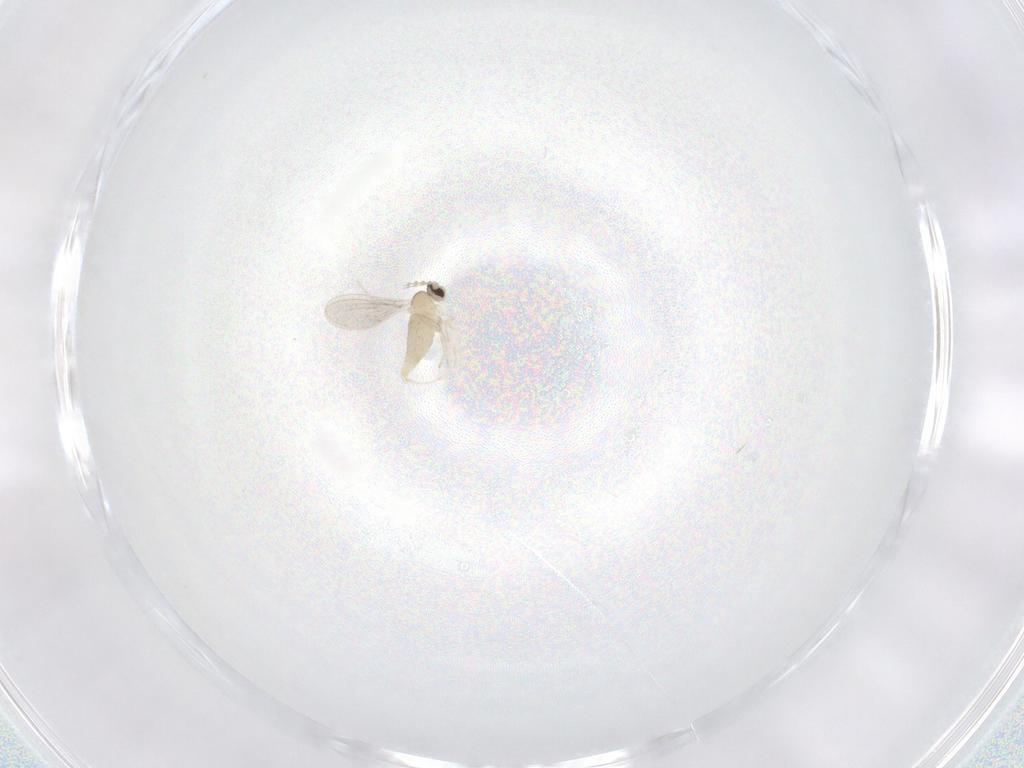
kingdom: Animalia
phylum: Arthropoda
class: Insecta
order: Diptera
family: Cecidomyiidae
